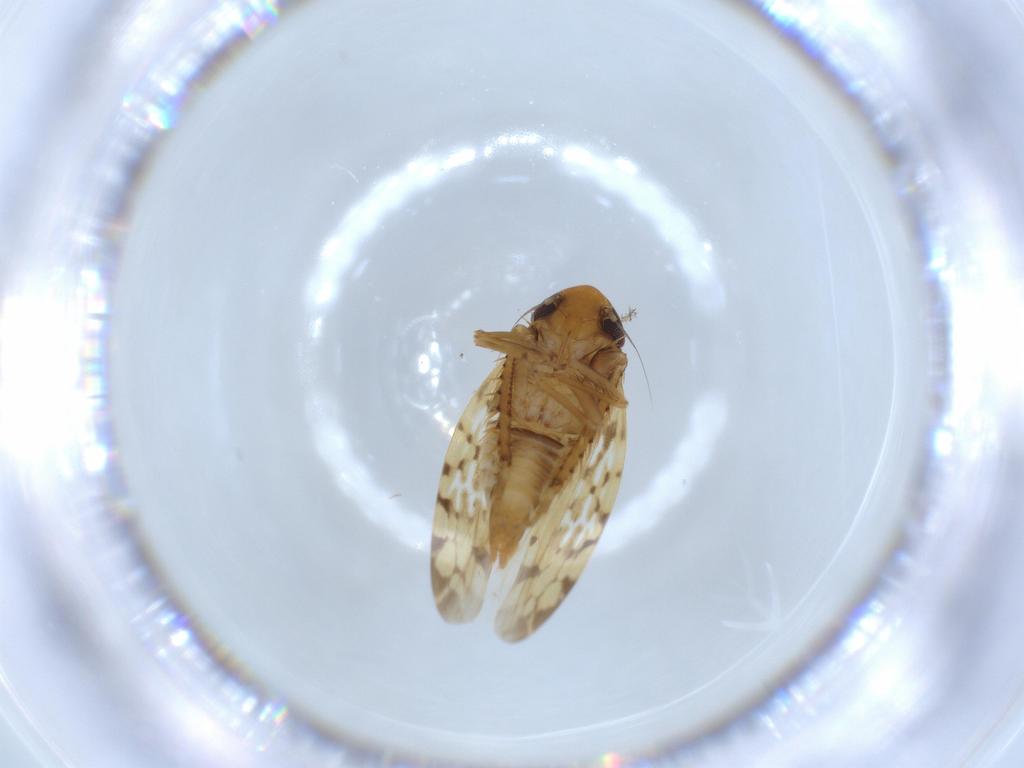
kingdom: Animalia
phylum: Arthropoda
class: Insecta
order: Hemiptera
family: Cicadellidae
